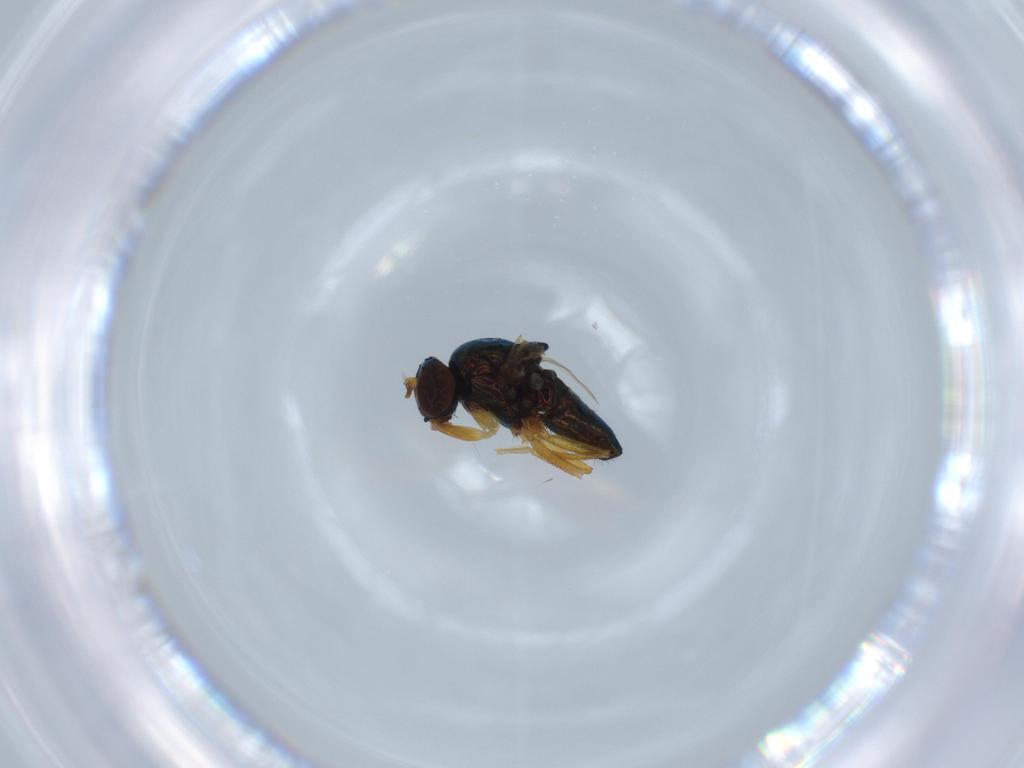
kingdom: Animalia
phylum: Arthropoda
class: Insecta
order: Diptera
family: Ephydridae
